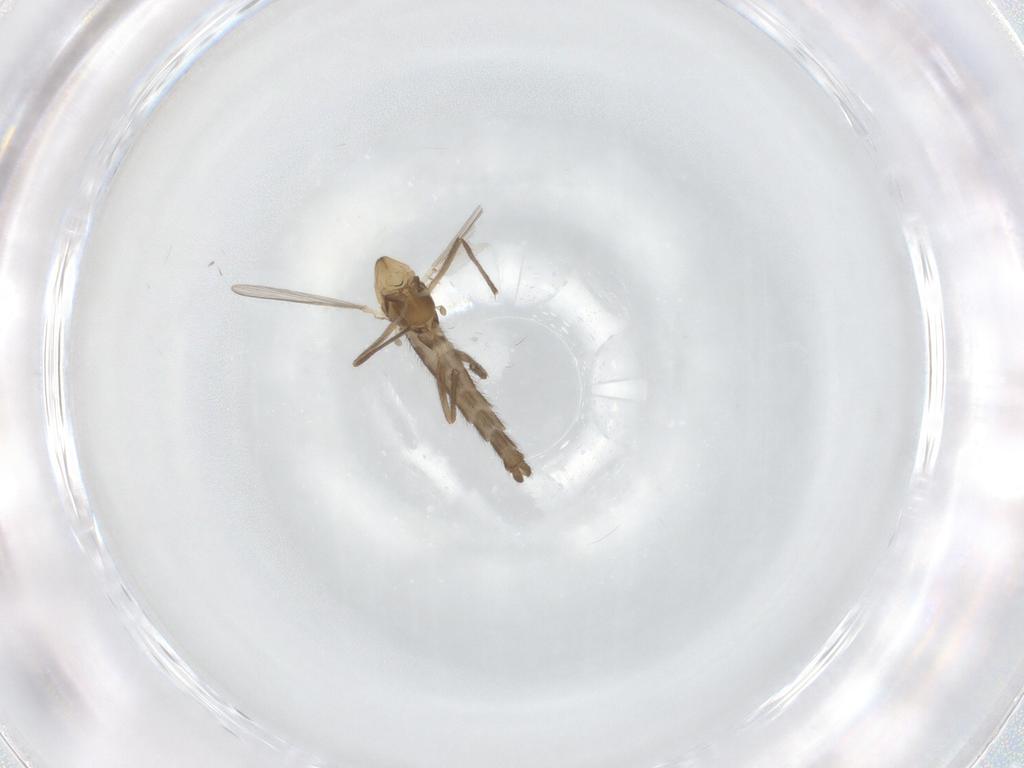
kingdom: Animalia
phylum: Arthropoda
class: Insecta
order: Diptera
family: Chironomidae
